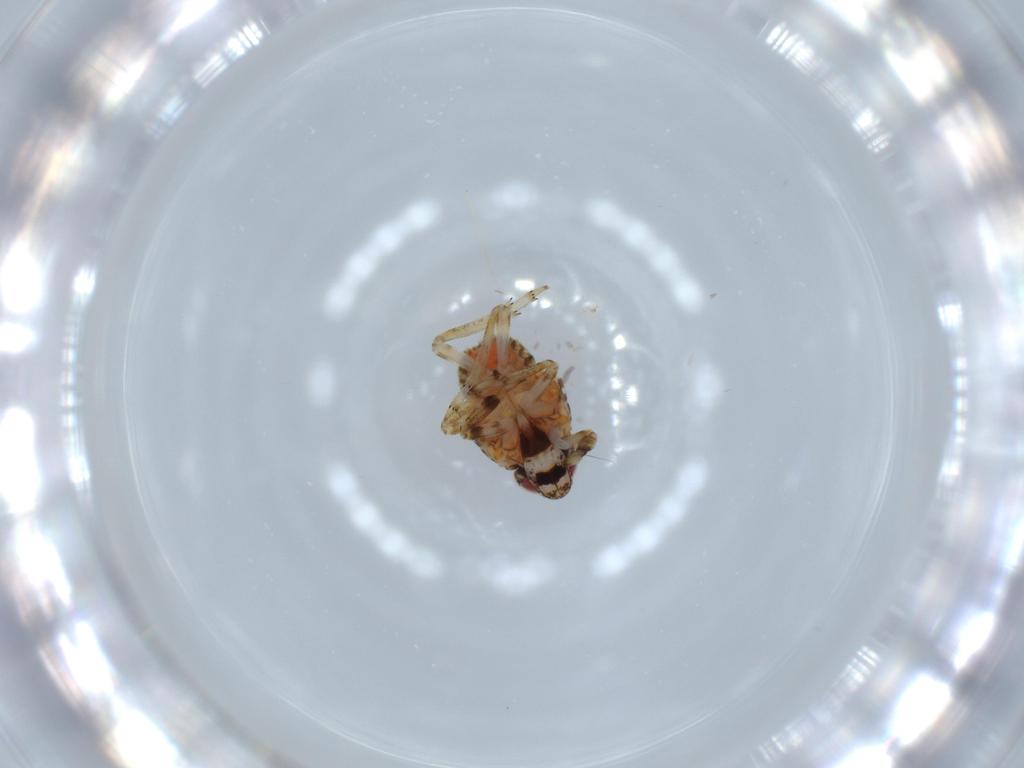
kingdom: Animalia
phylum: Arthropoda
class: Insecta
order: Hemiptera
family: Issidae
